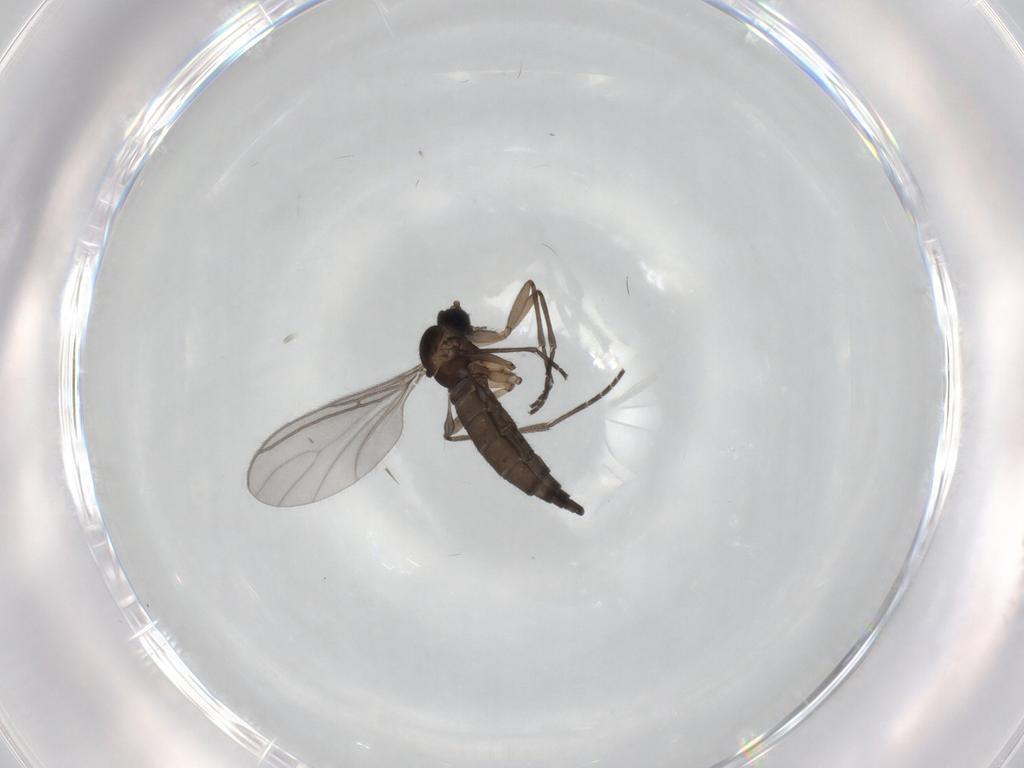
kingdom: Animalia
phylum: Arthropoda
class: Insecta
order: Diptera
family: Sciaridae
